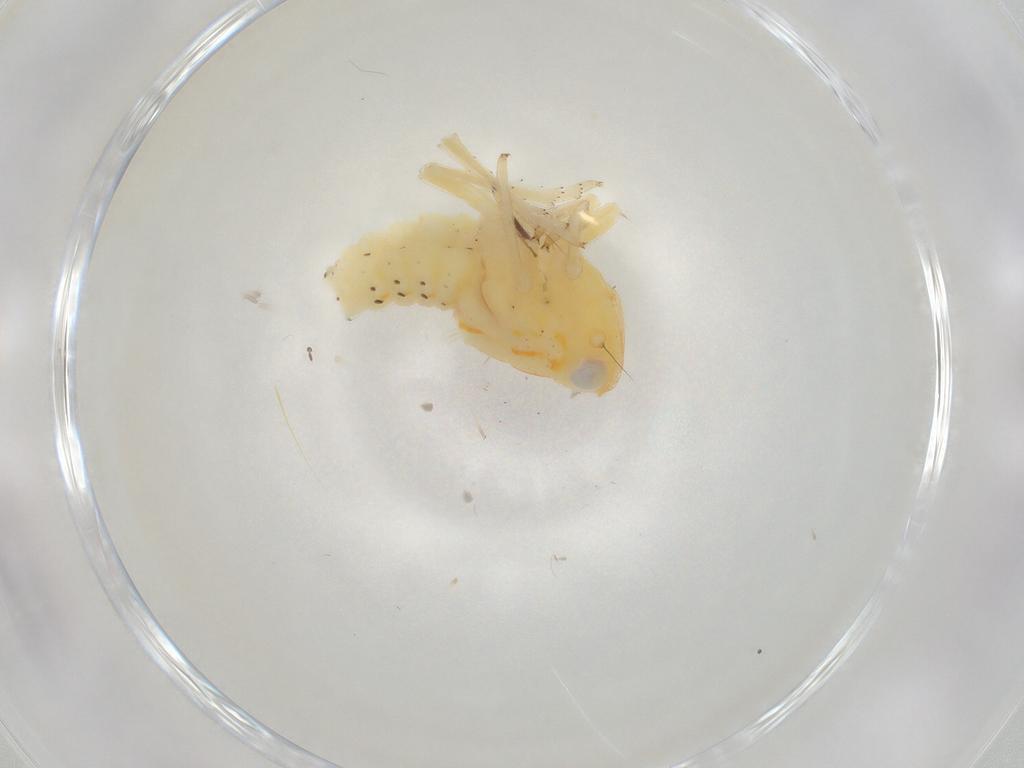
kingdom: Animalia
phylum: Arthropoda
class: Insecta
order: Hemiptera
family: Tropiduchidae
